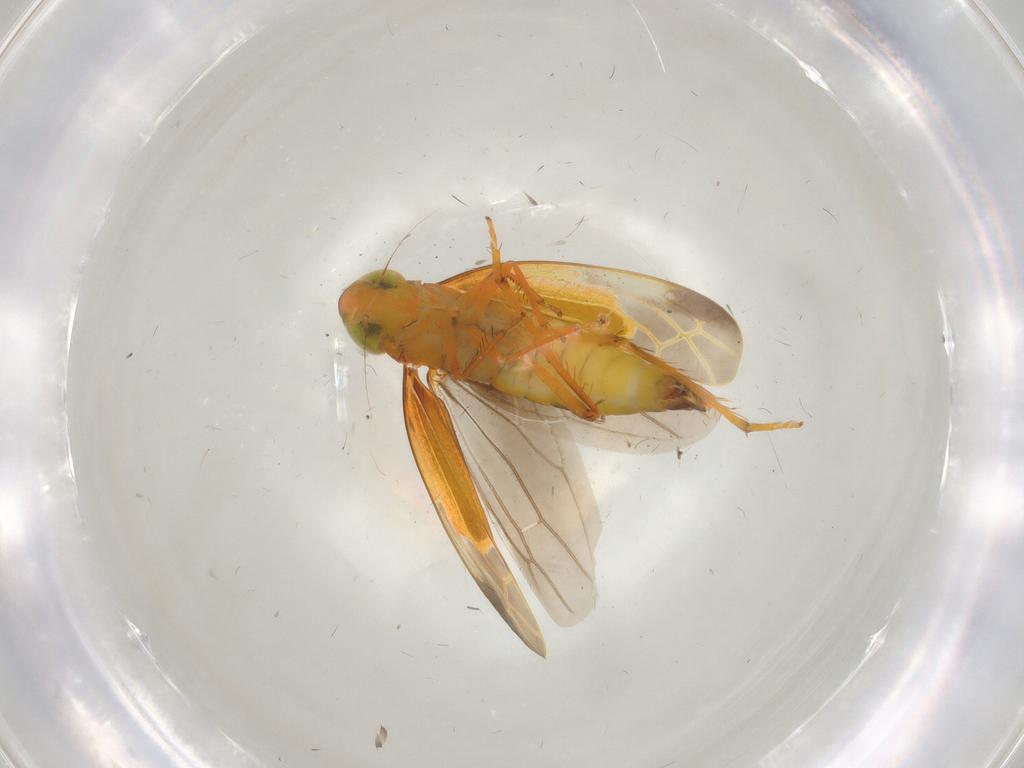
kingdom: Animalia
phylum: Arthropoda
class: Insecta
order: Hemiptera
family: Cicadellidae
